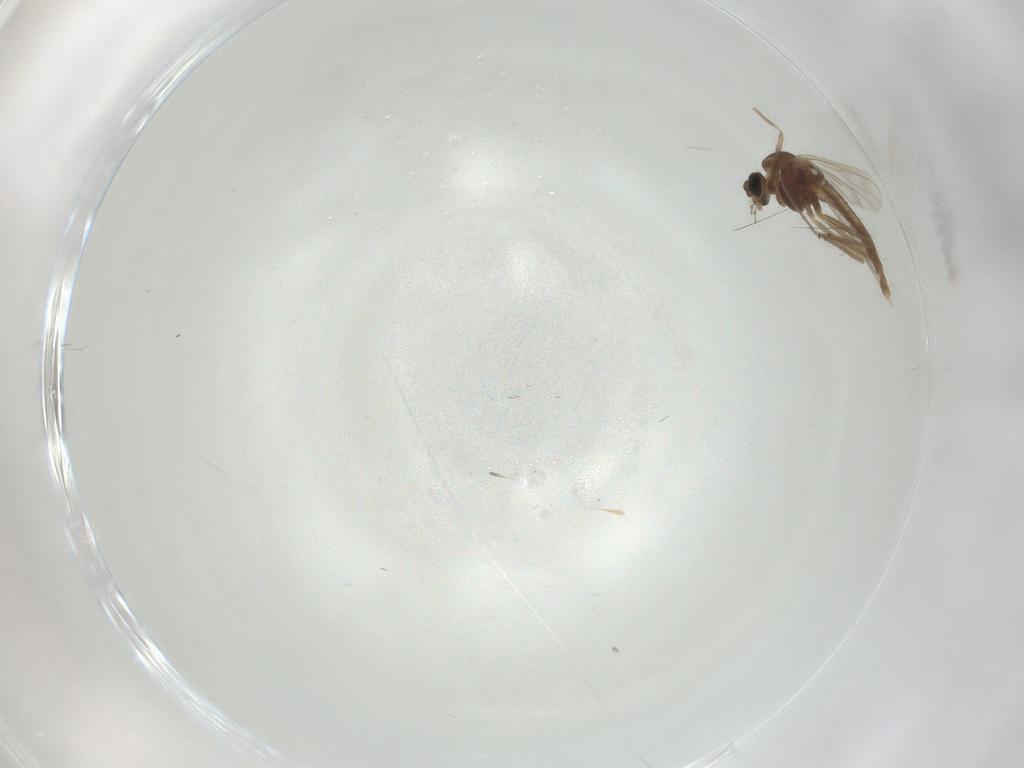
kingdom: Animalia
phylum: Arthropoda
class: Insecta
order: Diptera
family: Chironomidae
